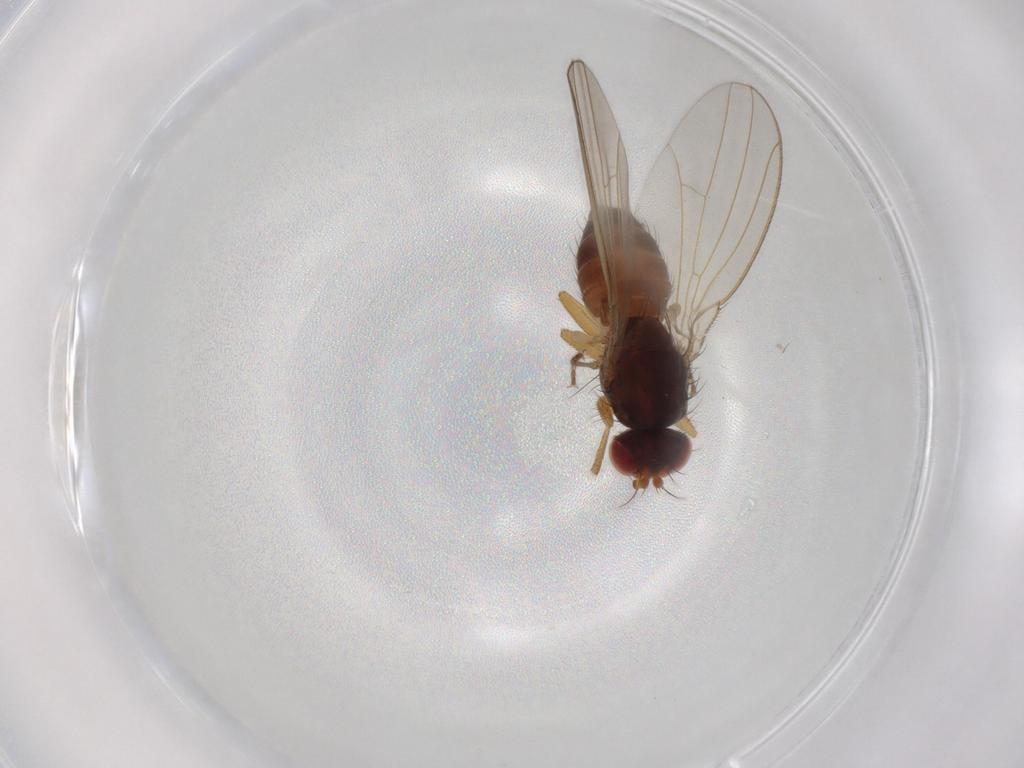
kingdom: Animalia
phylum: Arthropoda
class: Insecta
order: Diptera
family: Drosophilidae
